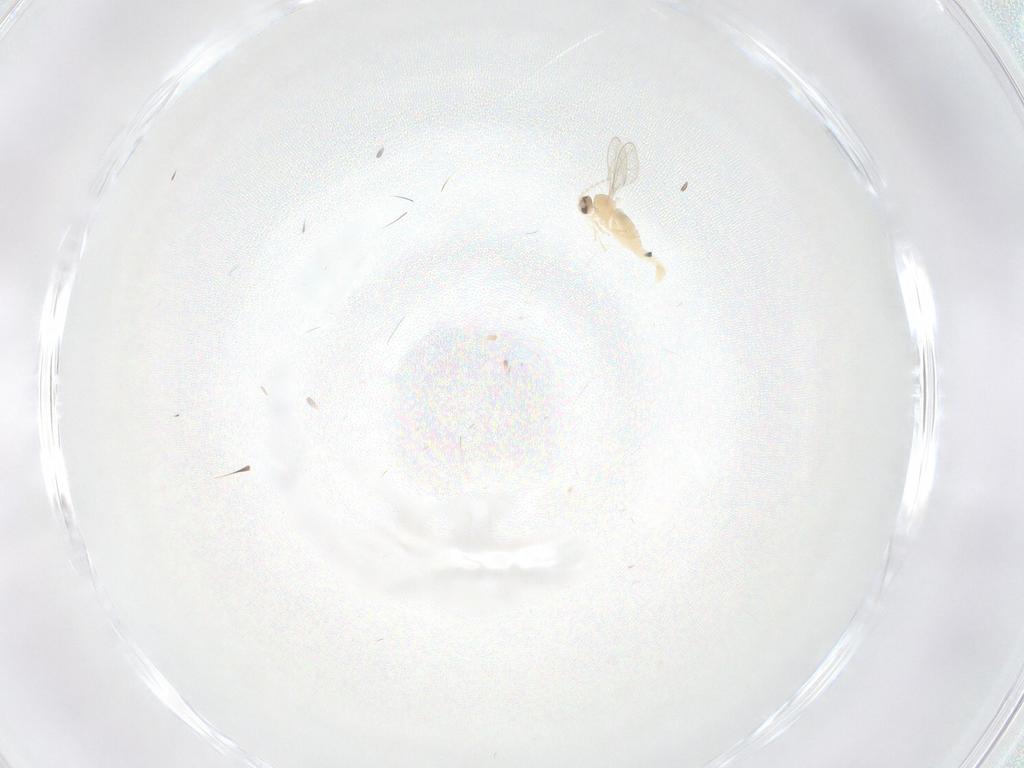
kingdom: Animalia
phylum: Arthropoda
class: Insecta
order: Diptera
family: Cecidomyiidae
